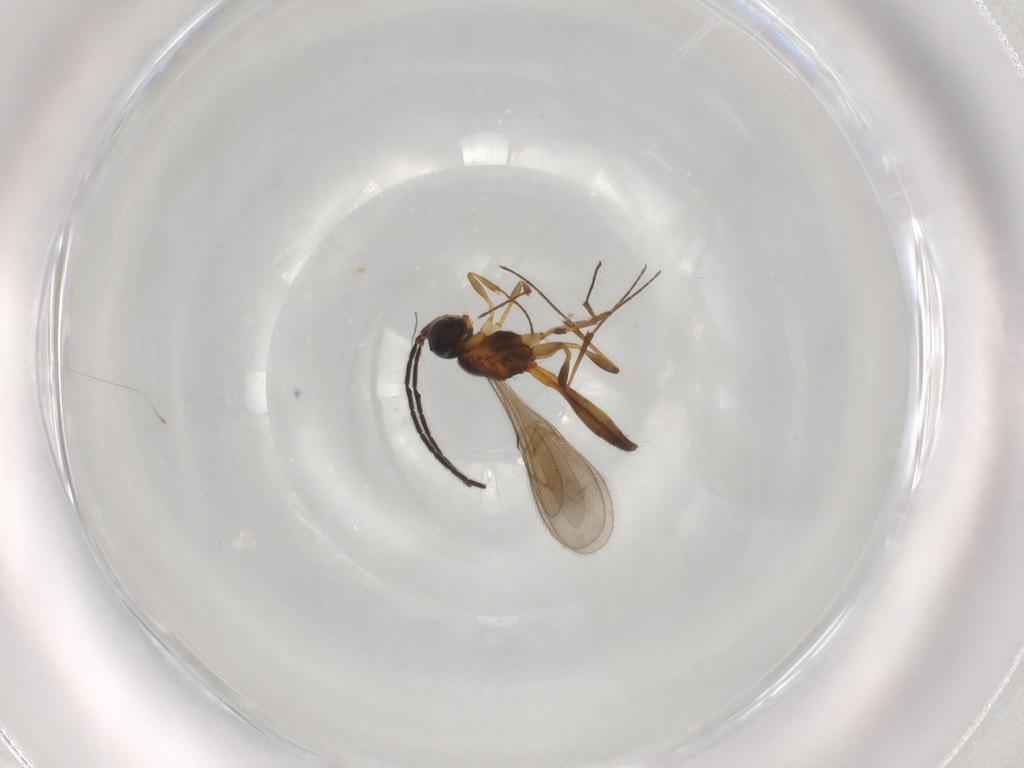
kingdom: Animalia
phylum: Arthropoda
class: Insecta
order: Hymenoptera
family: Scelionidae
